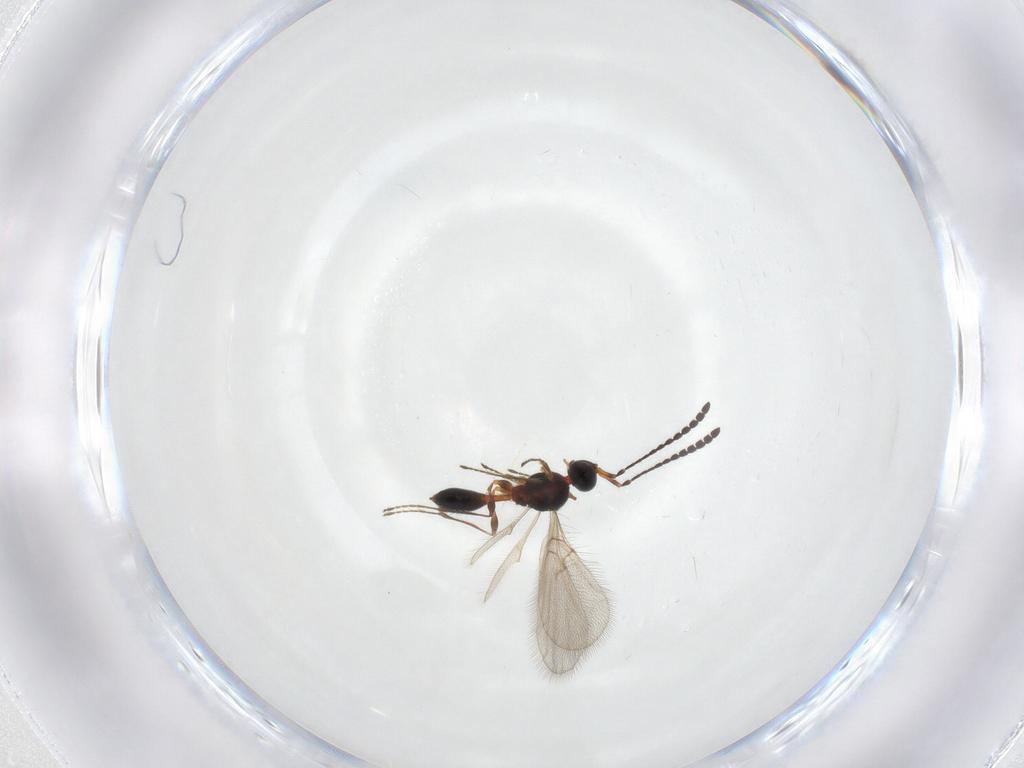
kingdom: Animalia
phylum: Arthropoda
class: Insecta
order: Hymenoptera
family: Diapriidae
